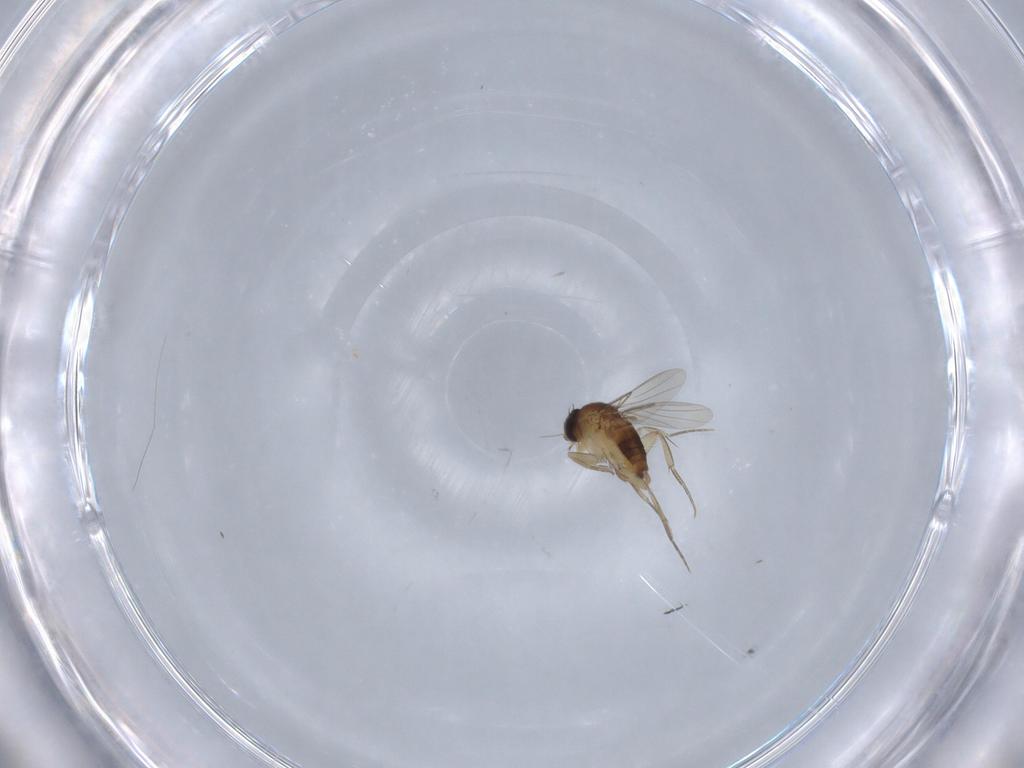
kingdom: Animalia
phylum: Arthropoda
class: Insecta
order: Diptera
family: Phoridae
